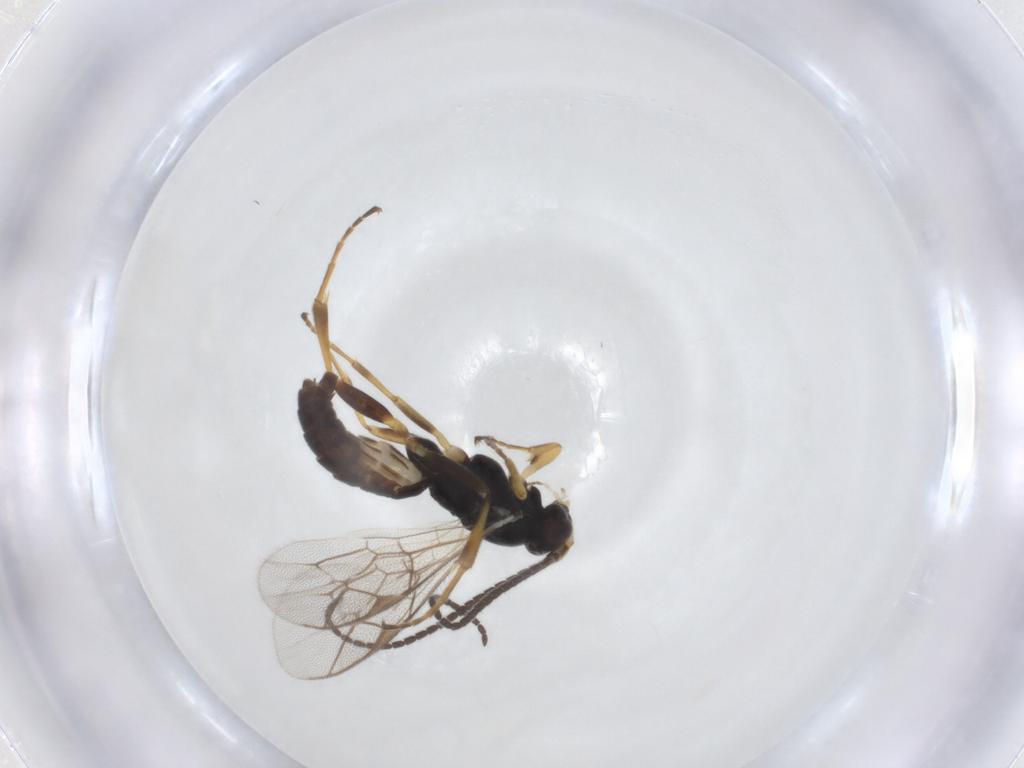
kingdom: Animalia
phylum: Arthropoda
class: Insecta
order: Hymenoptera
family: Ichneumonidae
